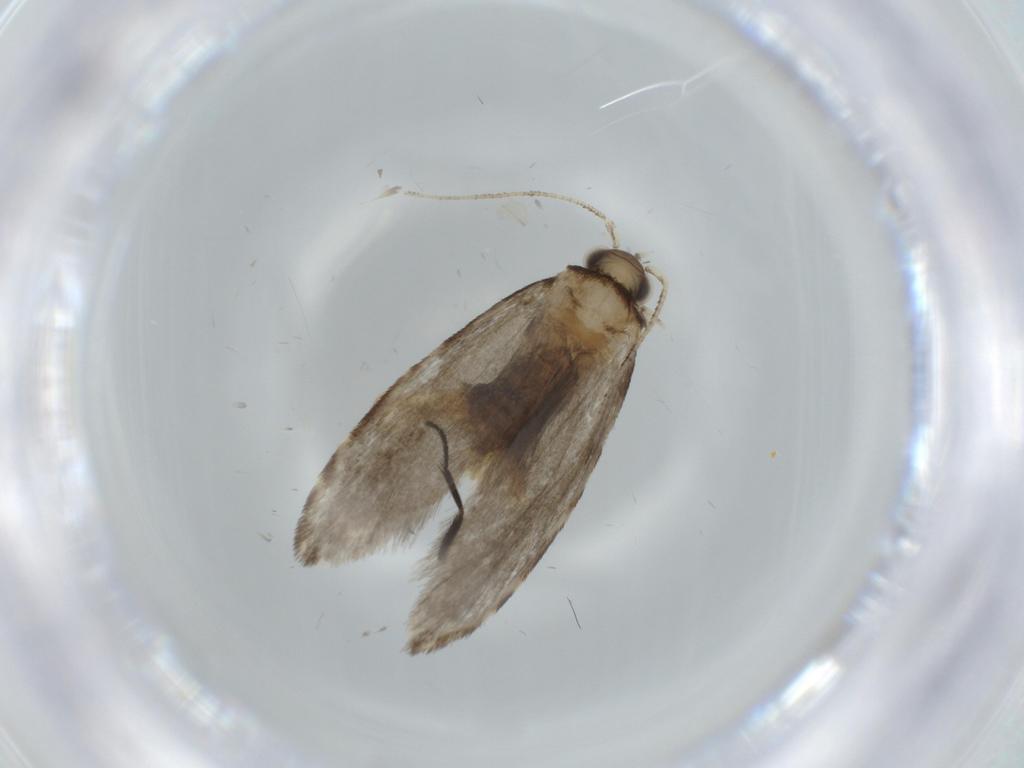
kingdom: Animalia
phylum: Arthropoda
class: Insecta
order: Lepidoptera
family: Tineidae
